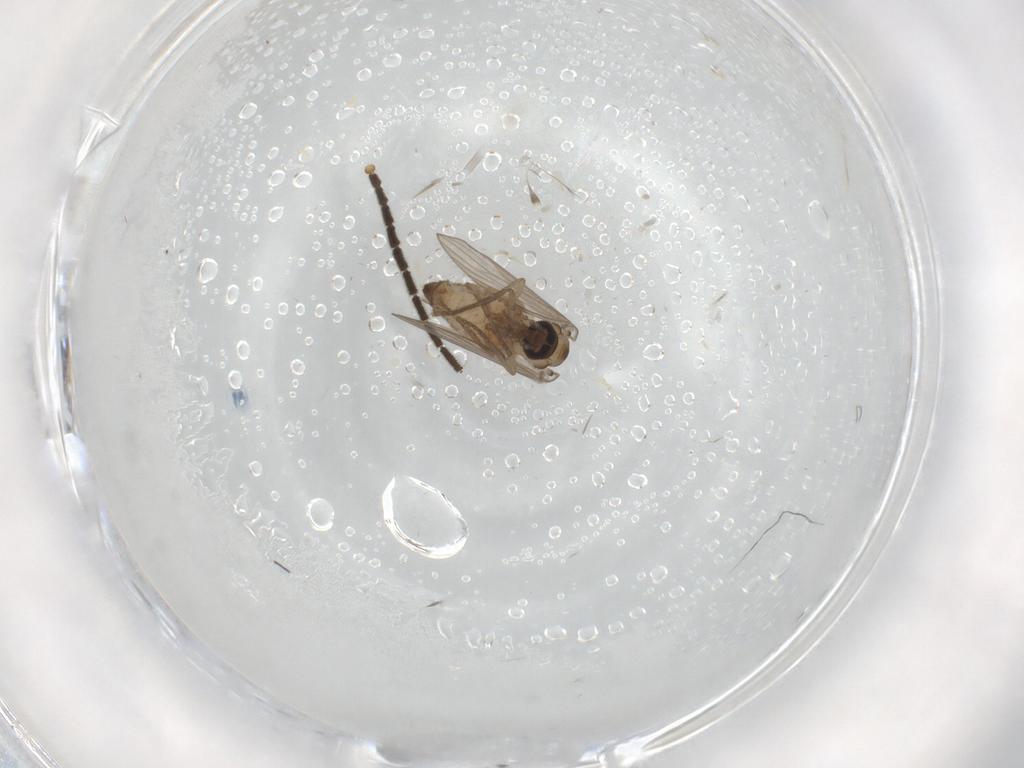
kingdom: Animalia
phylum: Arthropoda
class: Insecta
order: Diptera
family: Psychodidae
